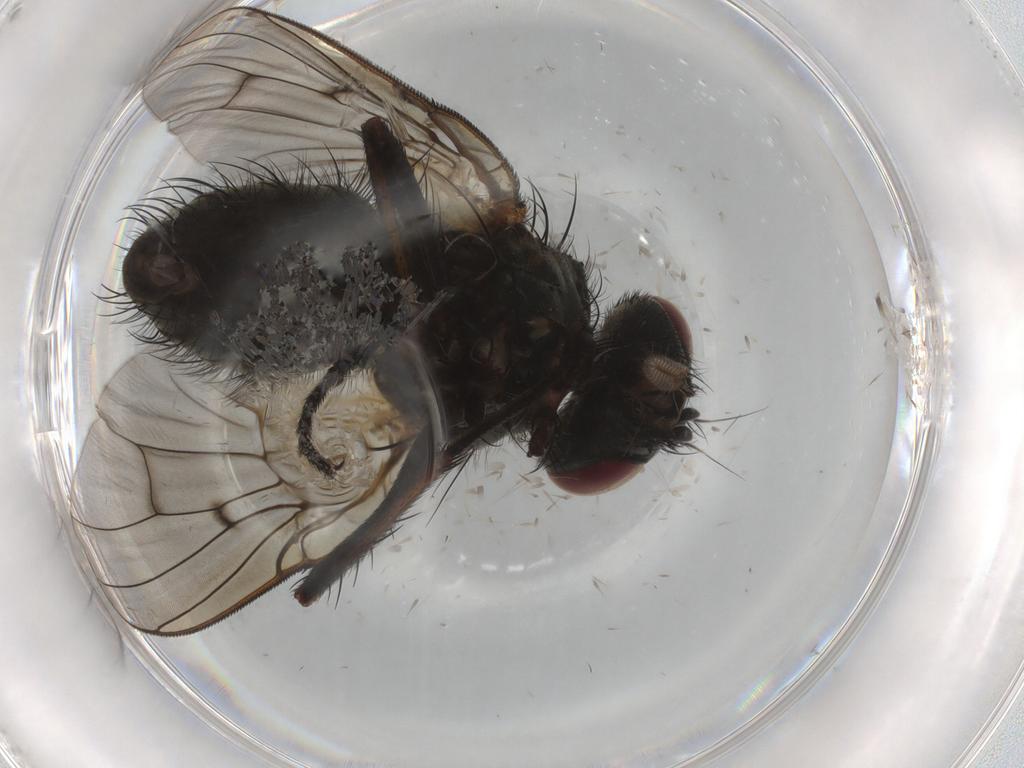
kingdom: Animalia
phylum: Arthropoda
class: Insecta
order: Diptera
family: Muscidae
